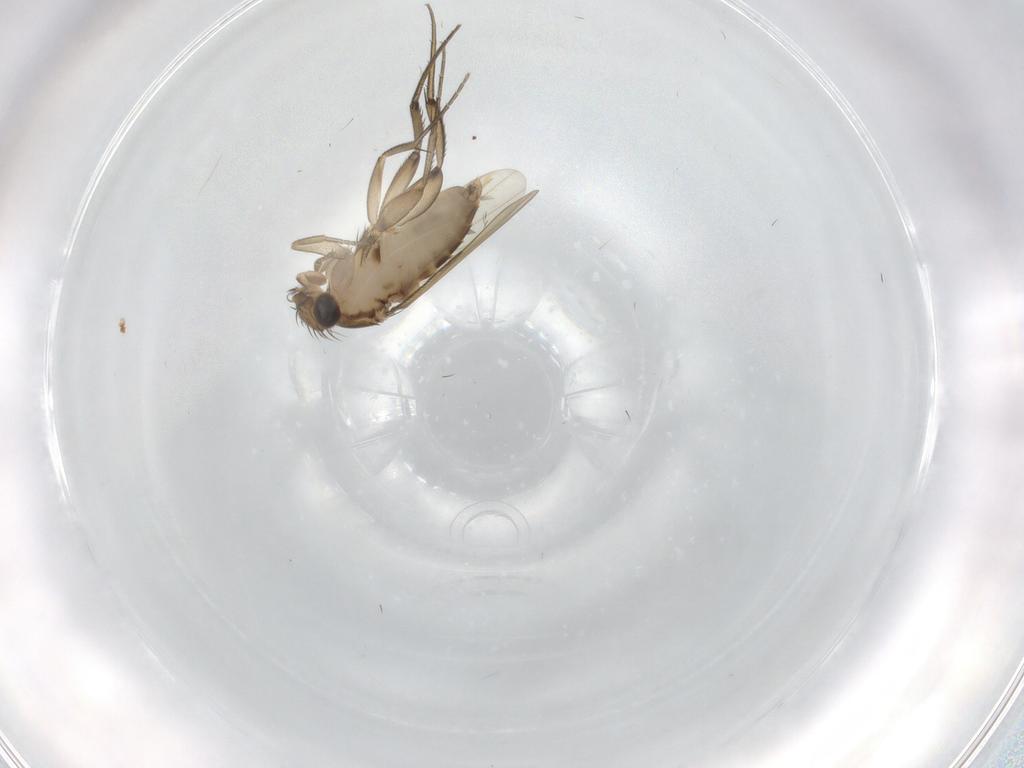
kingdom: Animalia
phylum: Arthropoda
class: Insecta
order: Diptera
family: Phoridae
